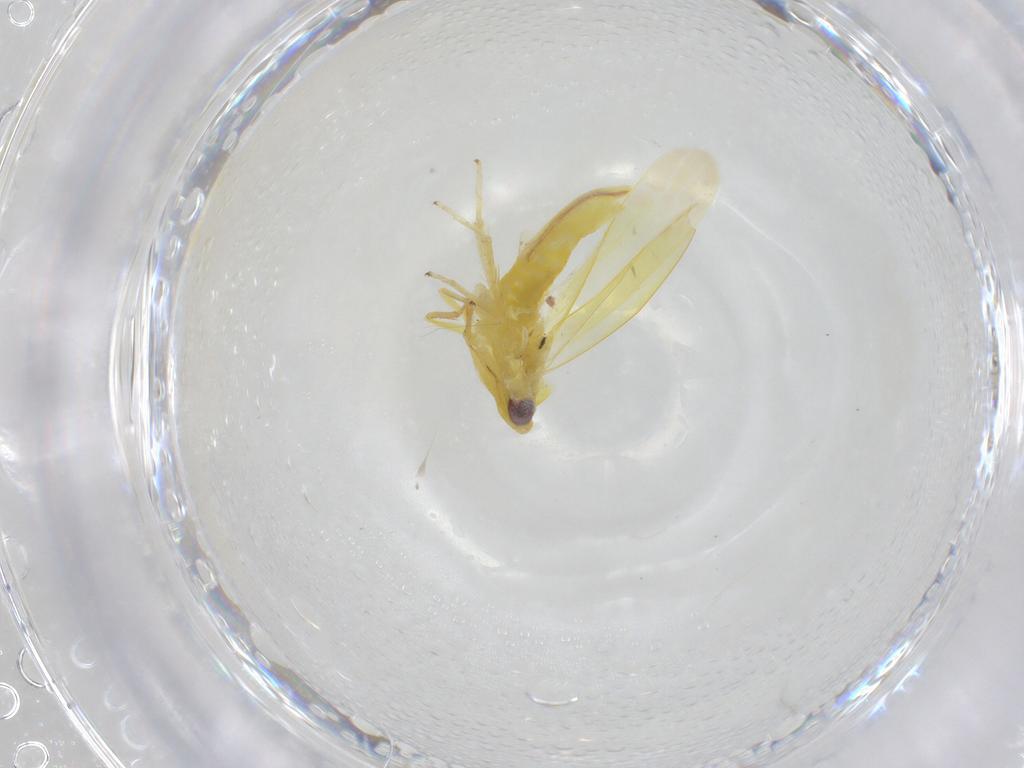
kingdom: Animalia
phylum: Arthropoda
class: Insecta
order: Hemiptera
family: Cicadellidae
